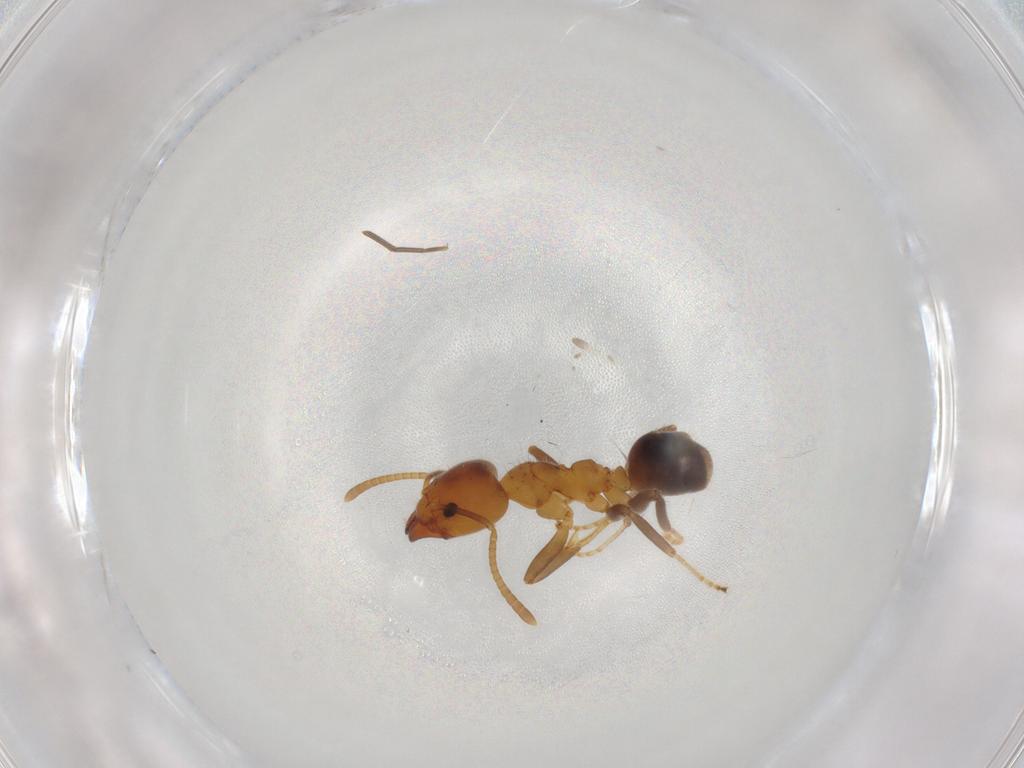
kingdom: Animalia
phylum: Arthropoda
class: Insecta
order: Hymenoptera
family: Formicidae
